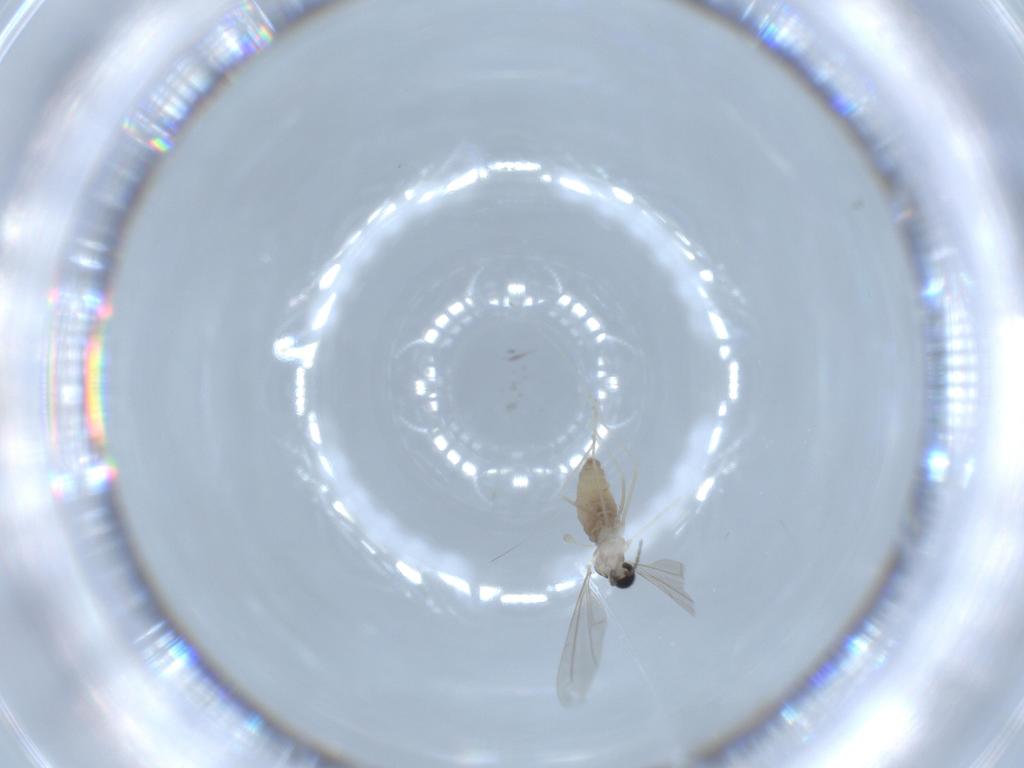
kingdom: Animalia
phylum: Arthropoda
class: Insecta
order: Diptera
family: Cecidomyiidae
